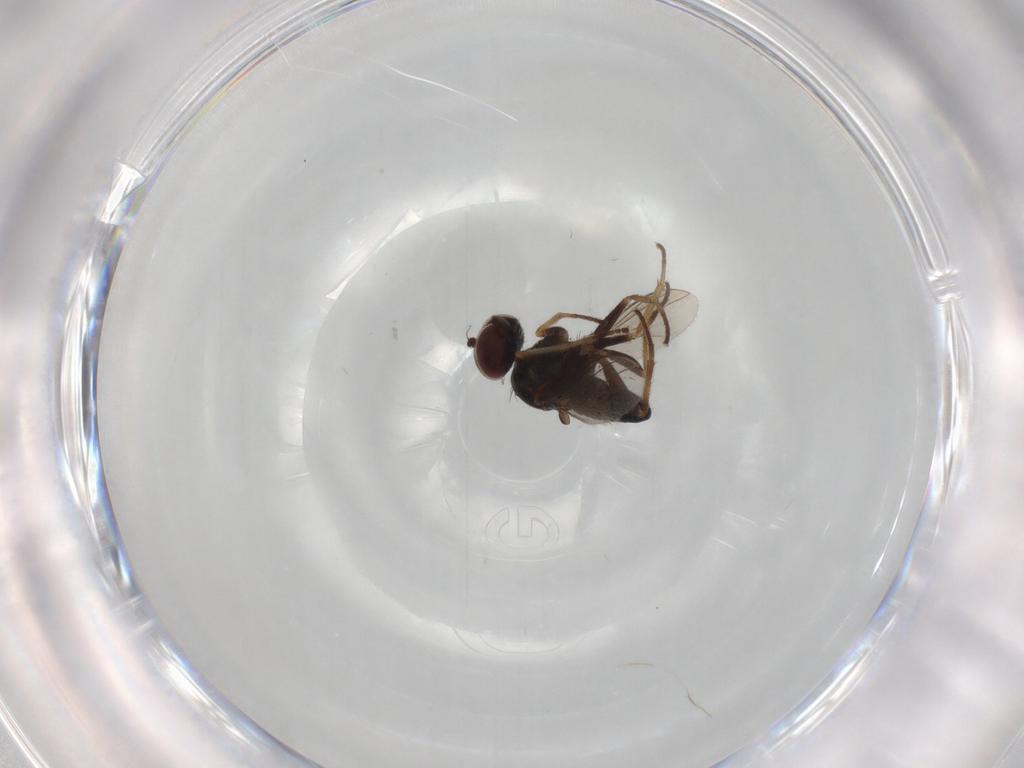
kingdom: Animalia
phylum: Arthropoda
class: Insecta
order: Diptera
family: Dolichopodidae
